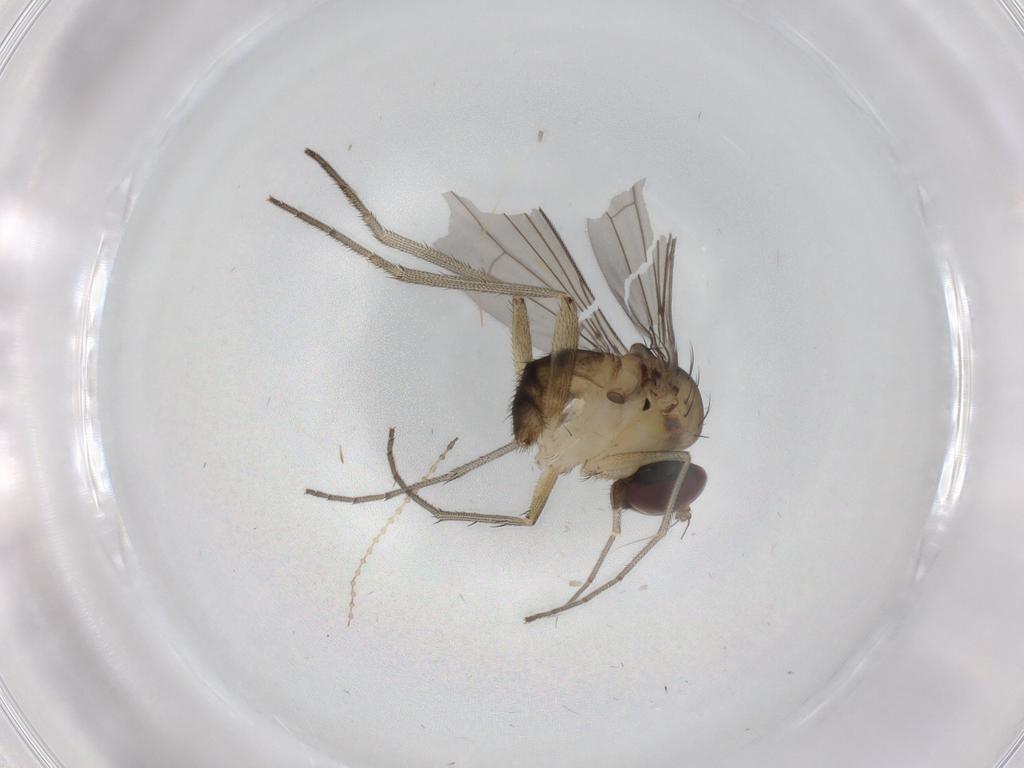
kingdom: Animalia
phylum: Arthropoda
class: Insecta
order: Diptera
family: Dolichopodidae
